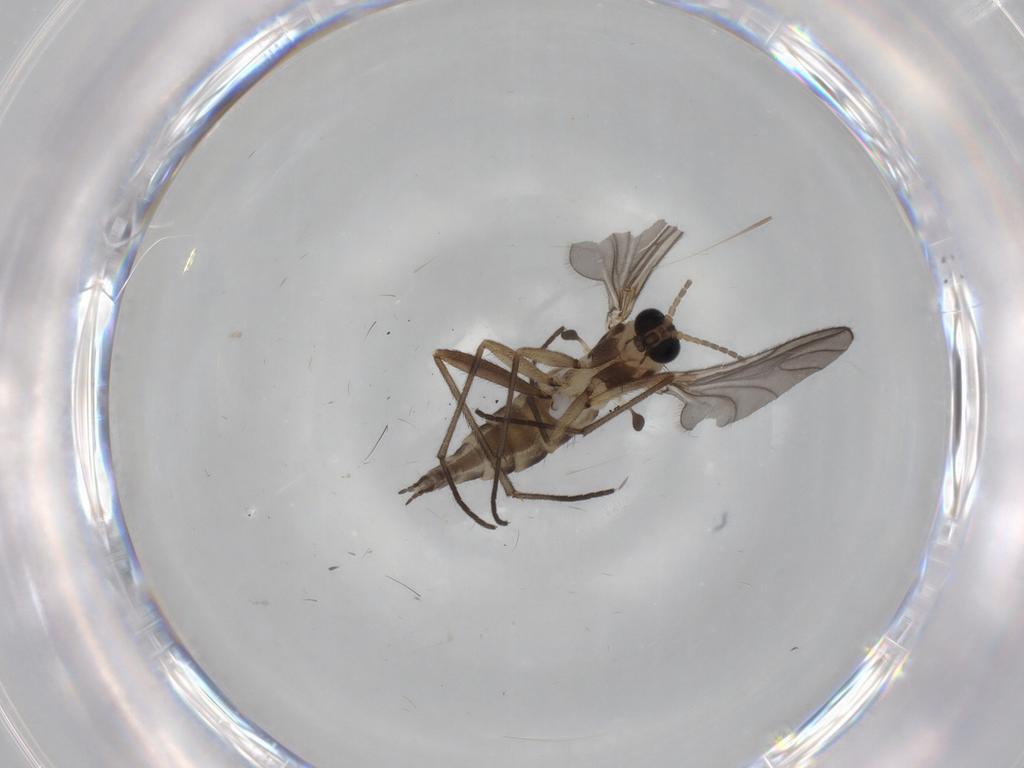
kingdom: Animalia
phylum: Arthropoda
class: Insecta
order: Diptera
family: Sciaridae
